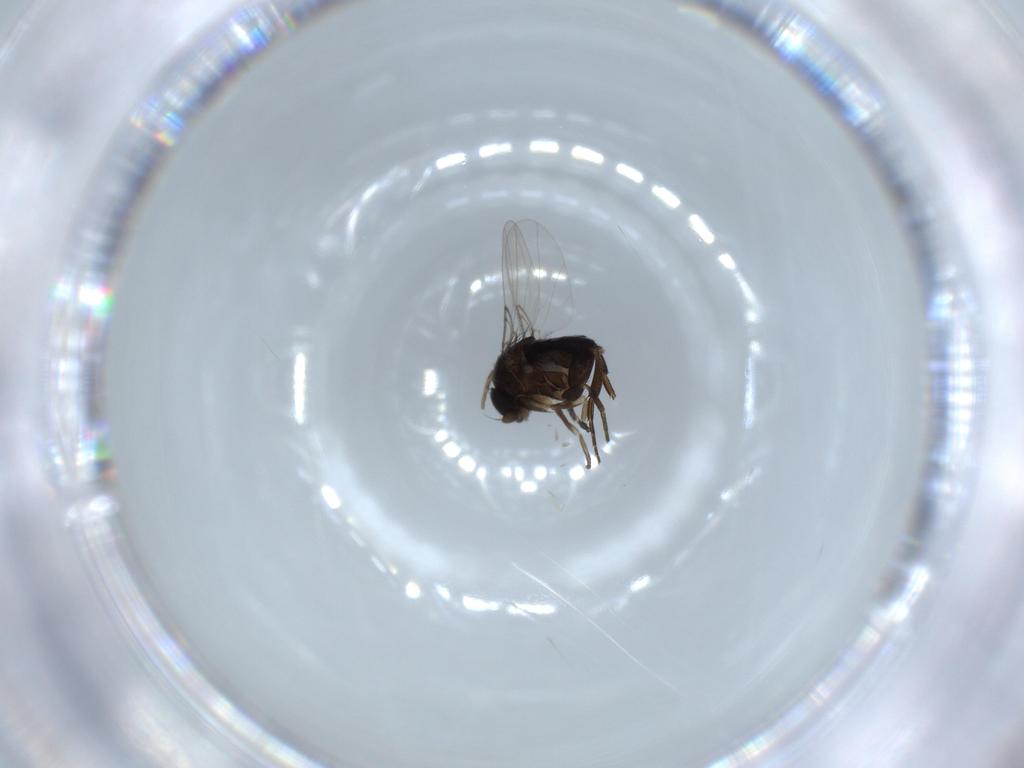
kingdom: Animalia
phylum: Arthropoda
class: Insecta
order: Diptera
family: Phoridae
